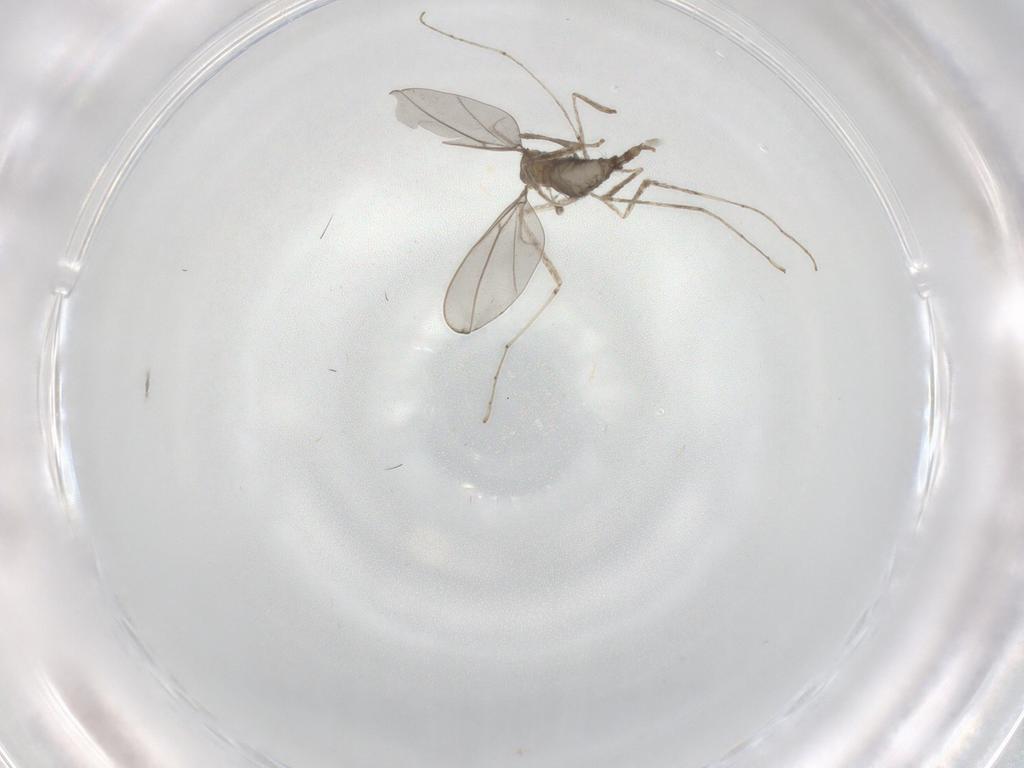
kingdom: Animalia
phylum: Arthropoda
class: Insecta
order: Diptera
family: Cecidomyiidae
